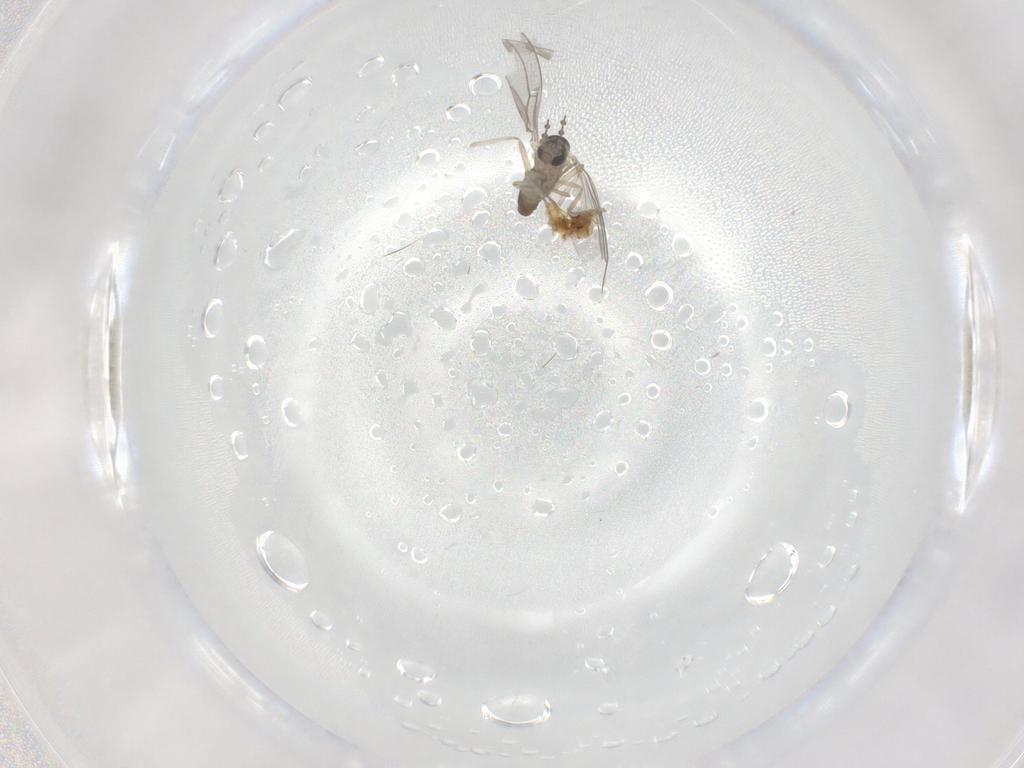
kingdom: Animalia
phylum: Arthropoda
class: Insecta
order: Diptera
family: Cecidomyiidae
